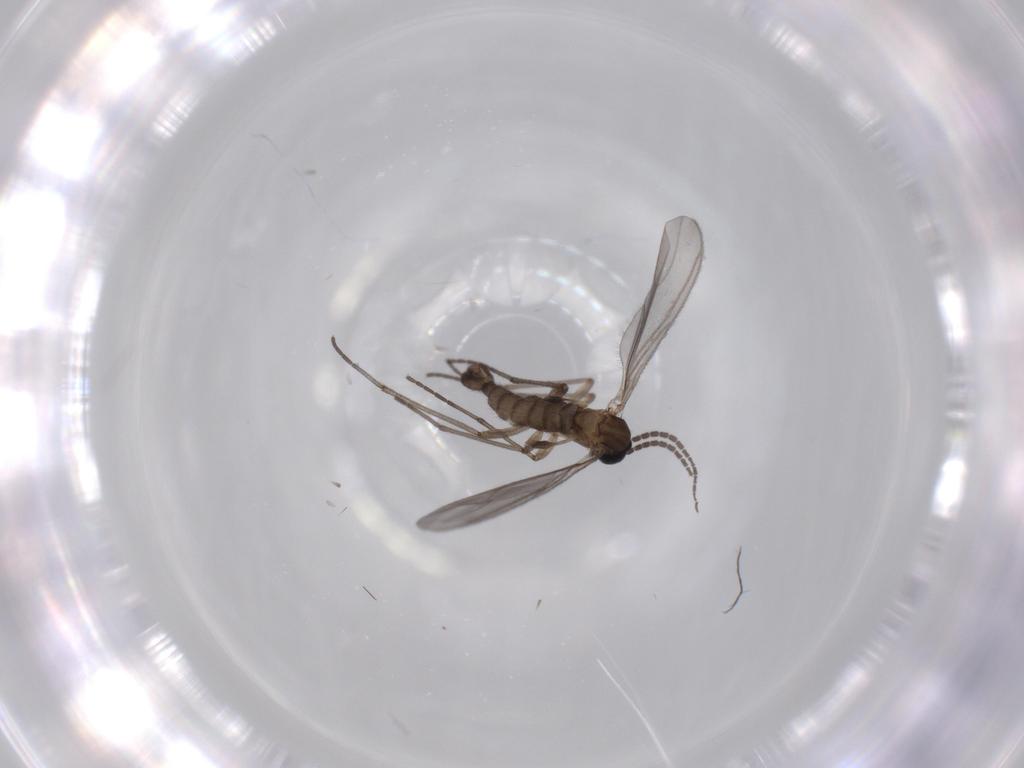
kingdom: Animalia
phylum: Arthropoda
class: Insecta
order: Diptera
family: Sciaridae
